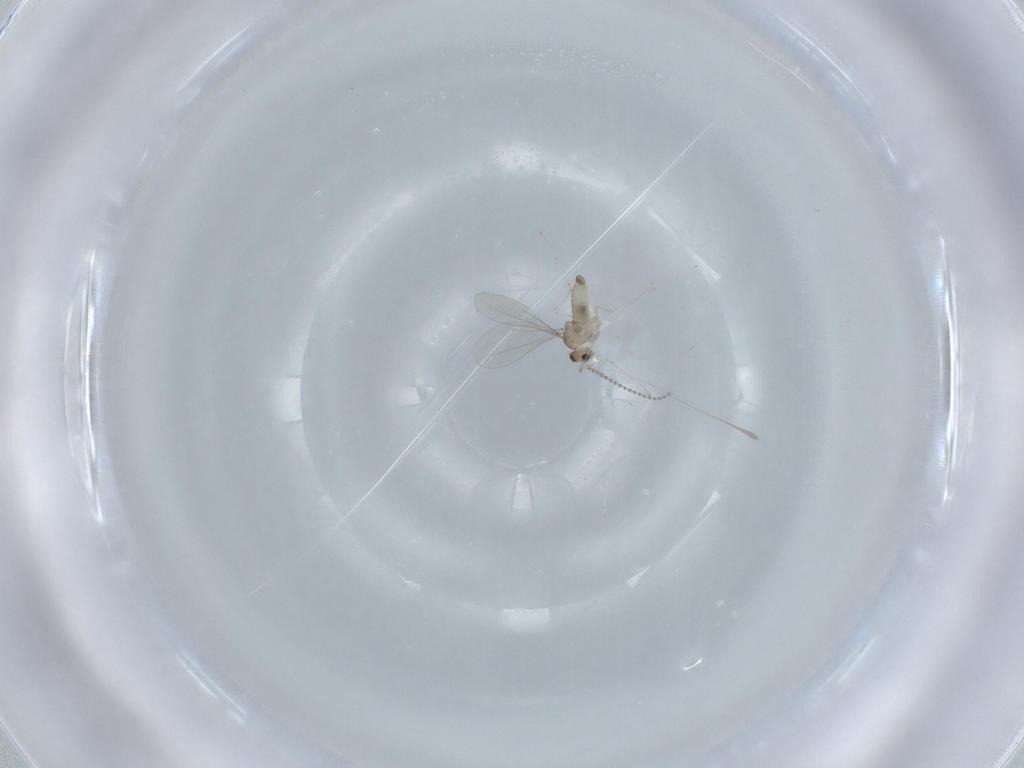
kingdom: Animalia
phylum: Arthropoda
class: Insecta
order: Diptera
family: Cecidomyiidae
